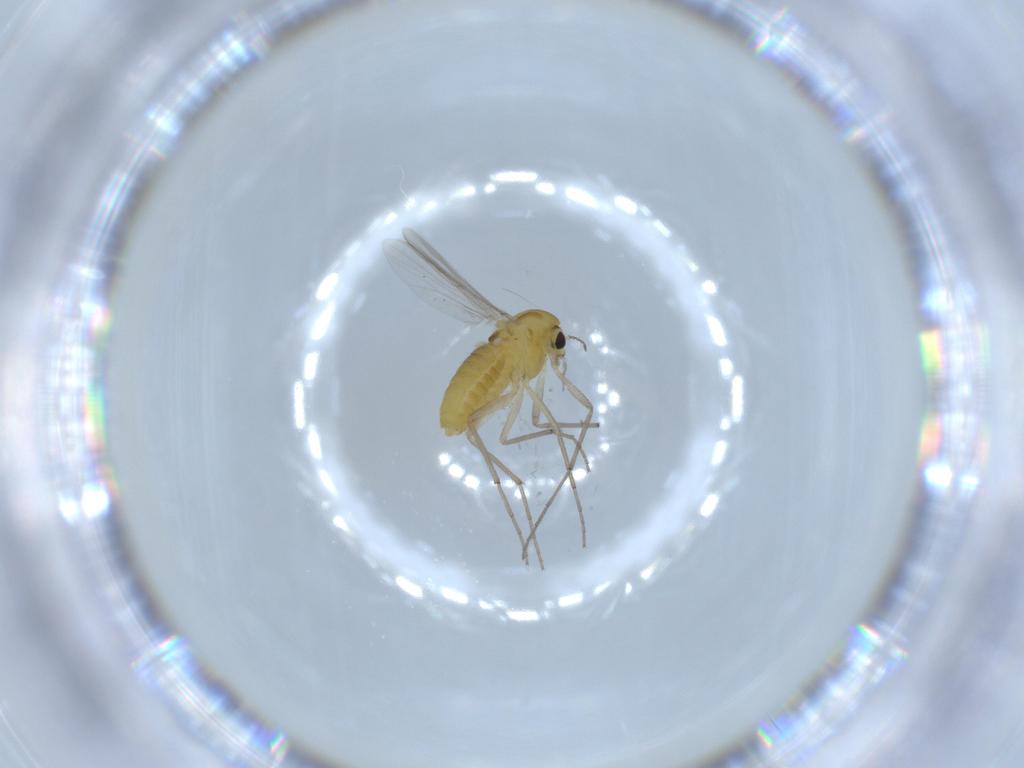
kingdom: Animalia
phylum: Arthropoda
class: Insecta
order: Diptera
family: Chironomidae
